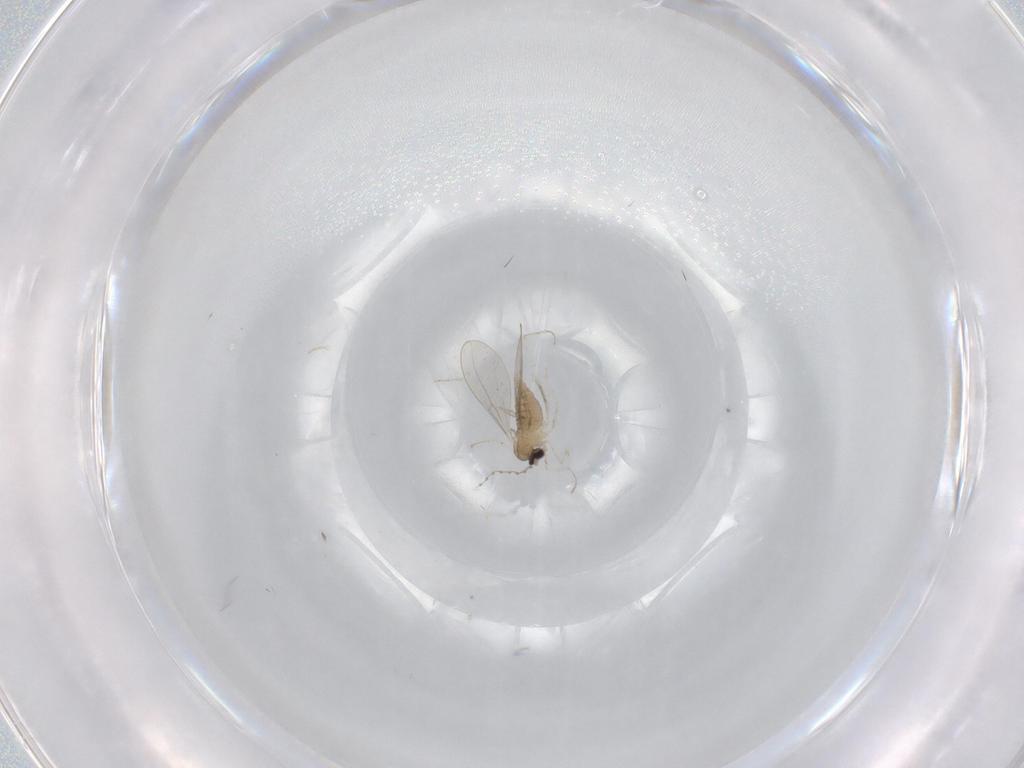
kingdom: Animalia
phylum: Arthropoda
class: Insecta
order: Diptera
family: Cecidomyiidae
